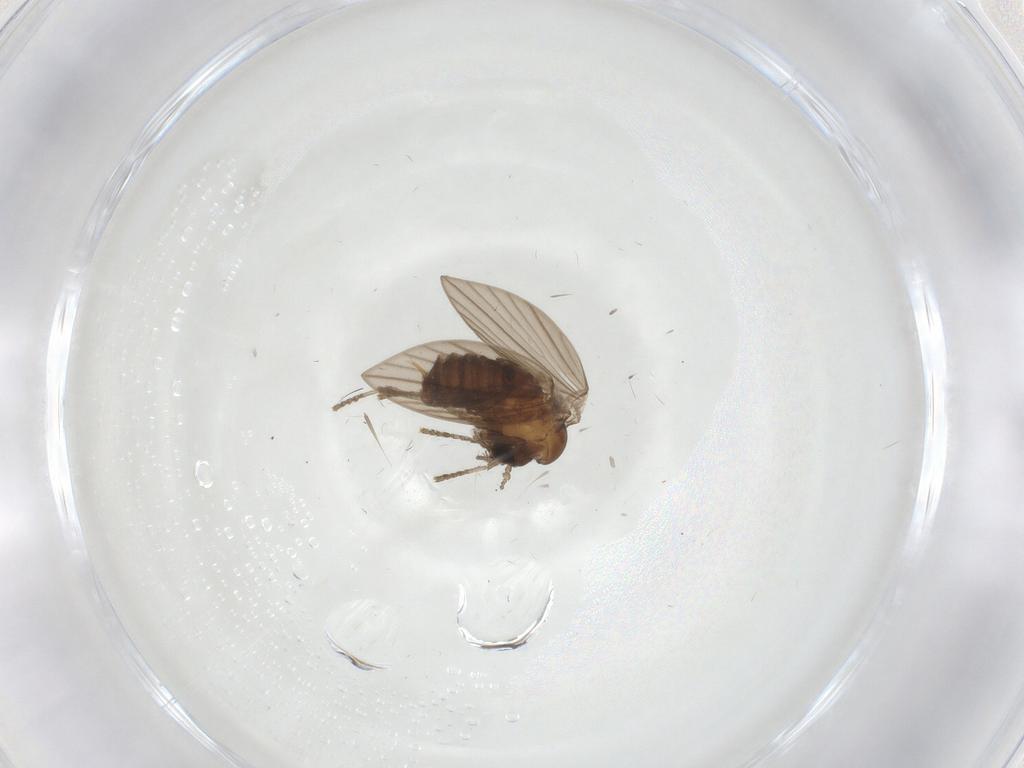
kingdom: Animalia
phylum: Arthropoda
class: Insecta
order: Diptera
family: Psychodidae
